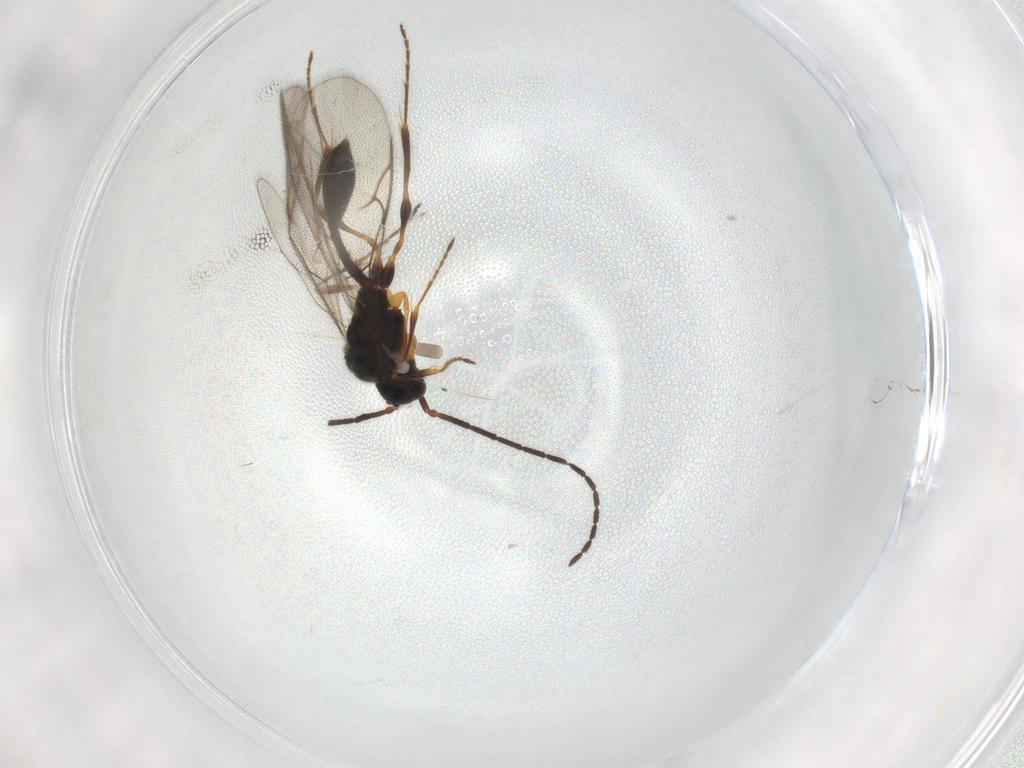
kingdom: Animalia
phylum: Arthropoda
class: Insecta
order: Hymenoptera
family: Diapriidae
